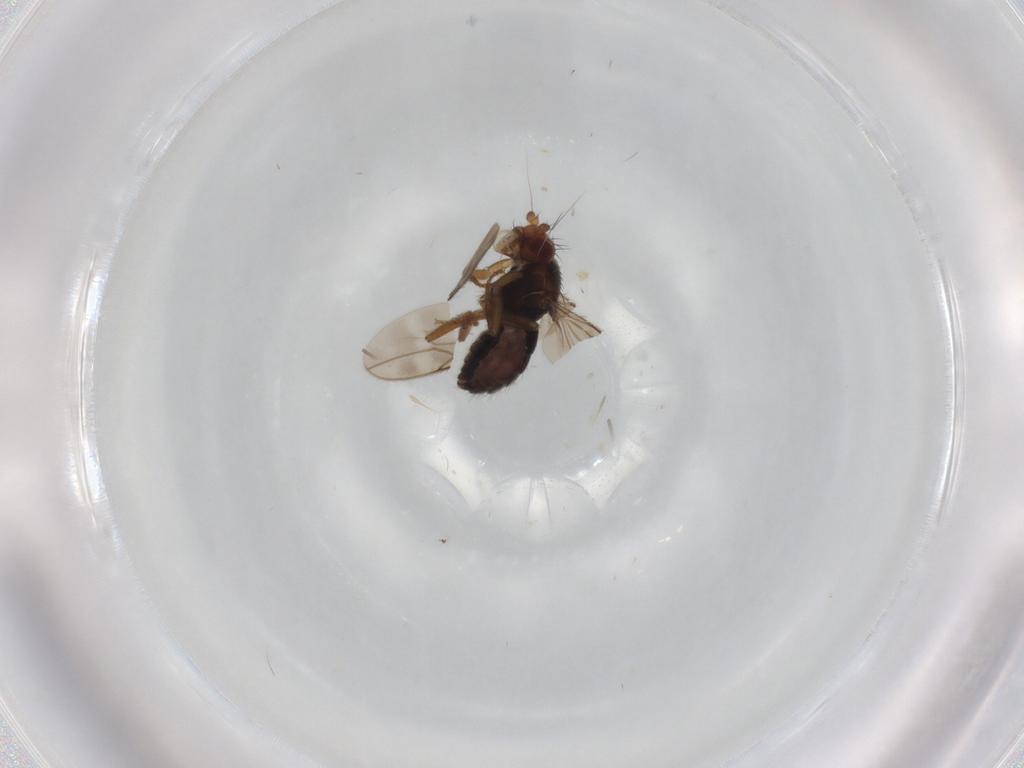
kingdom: Animalia
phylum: Arthropoda
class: Insecta
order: Diptera
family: Sphaeroceridae
